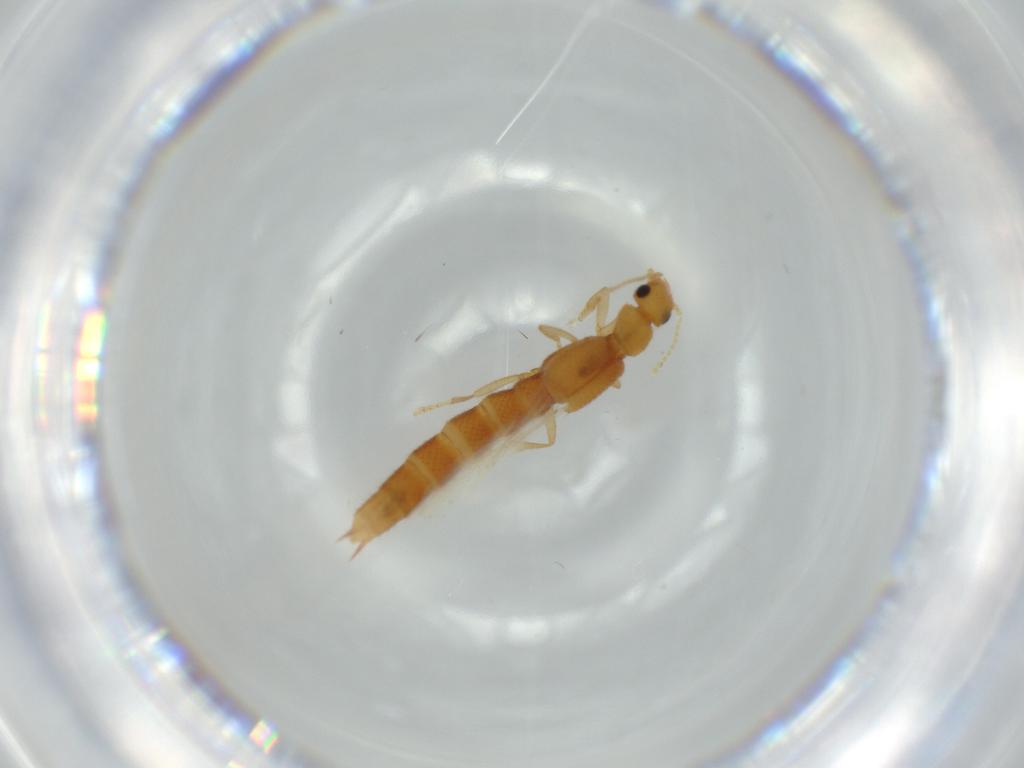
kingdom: Animalia
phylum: Arthropoda
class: Insecta
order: Coleoptera
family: Staphylinidae
